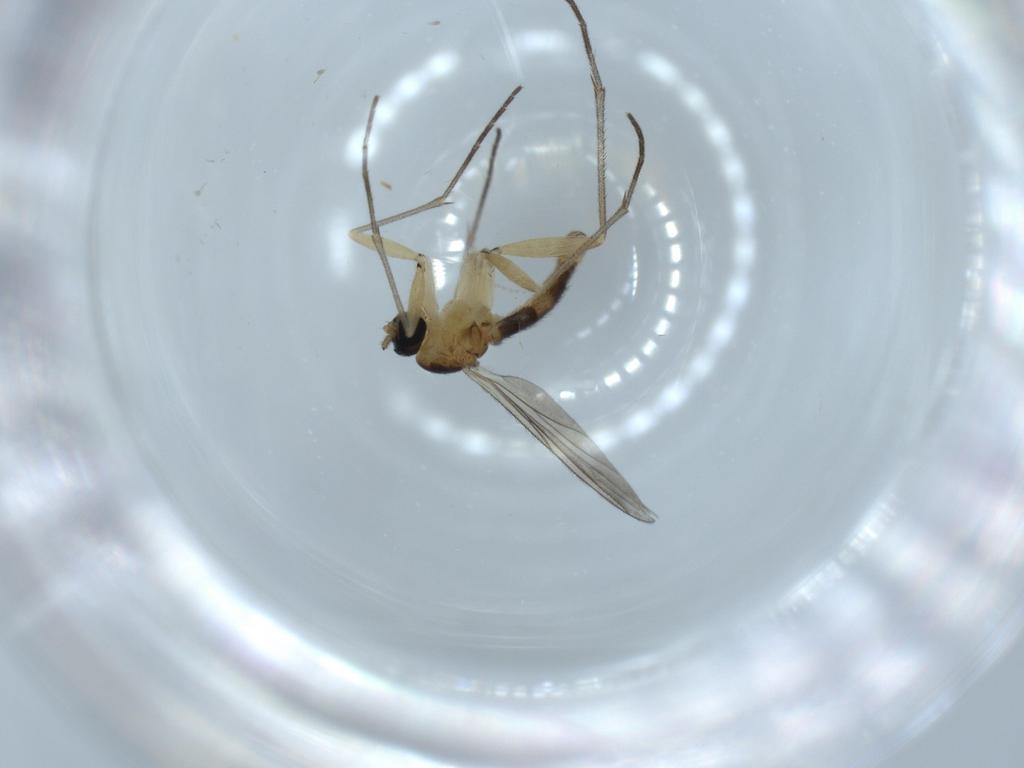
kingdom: Animalia
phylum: Arthropoda
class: Insecta
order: Diptera
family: Sciaridae
